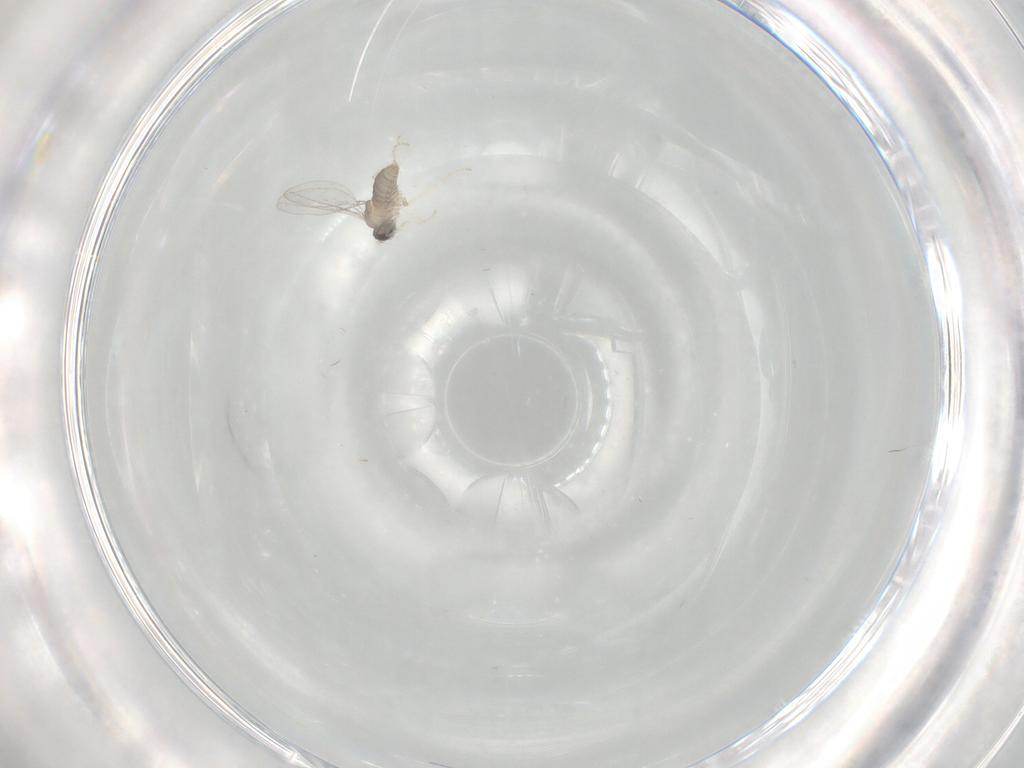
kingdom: Animalia
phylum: Arthropoda
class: Insecta
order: Diptera
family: Cecidomyiidae
